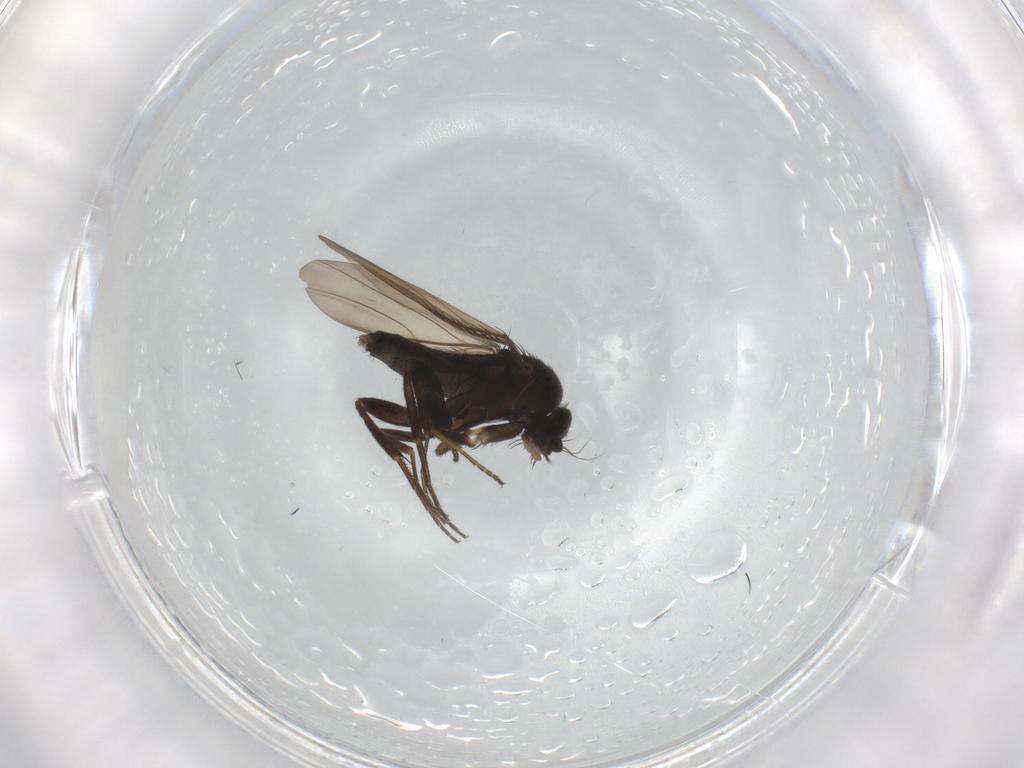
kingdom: Animalia
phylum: Arthropoda
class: Insecta
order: Diptera
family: Phoridae
